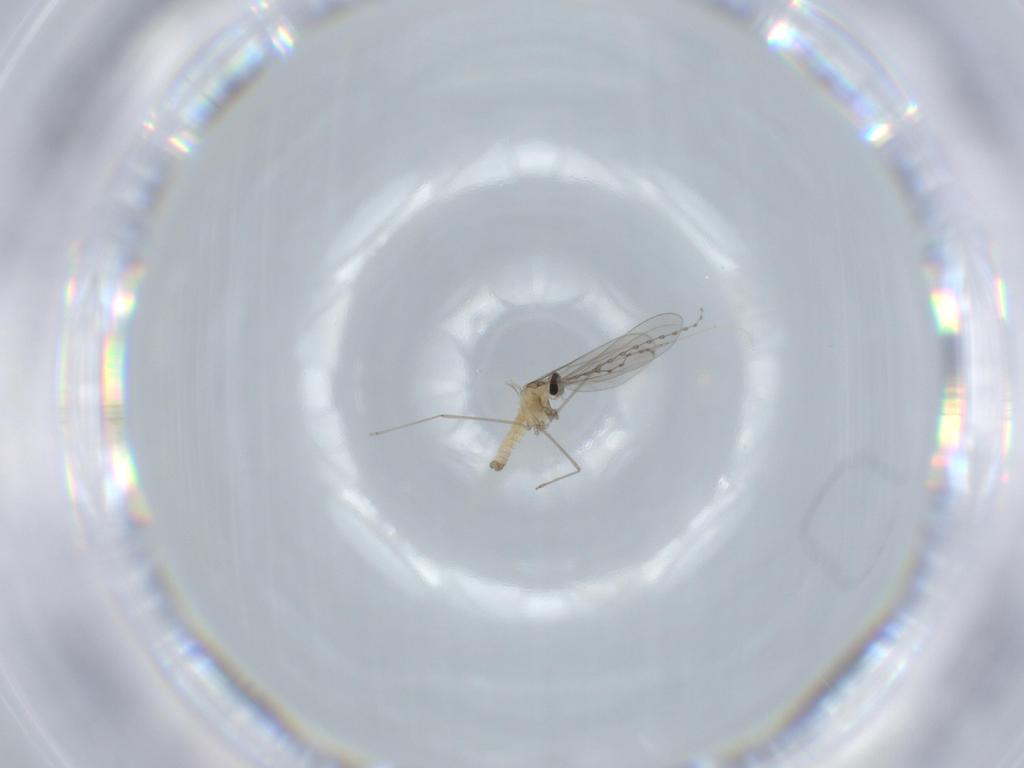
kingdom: Animalia
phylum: Arthropoda
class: Insecta
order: Diptera
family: Cecidomyiidae
